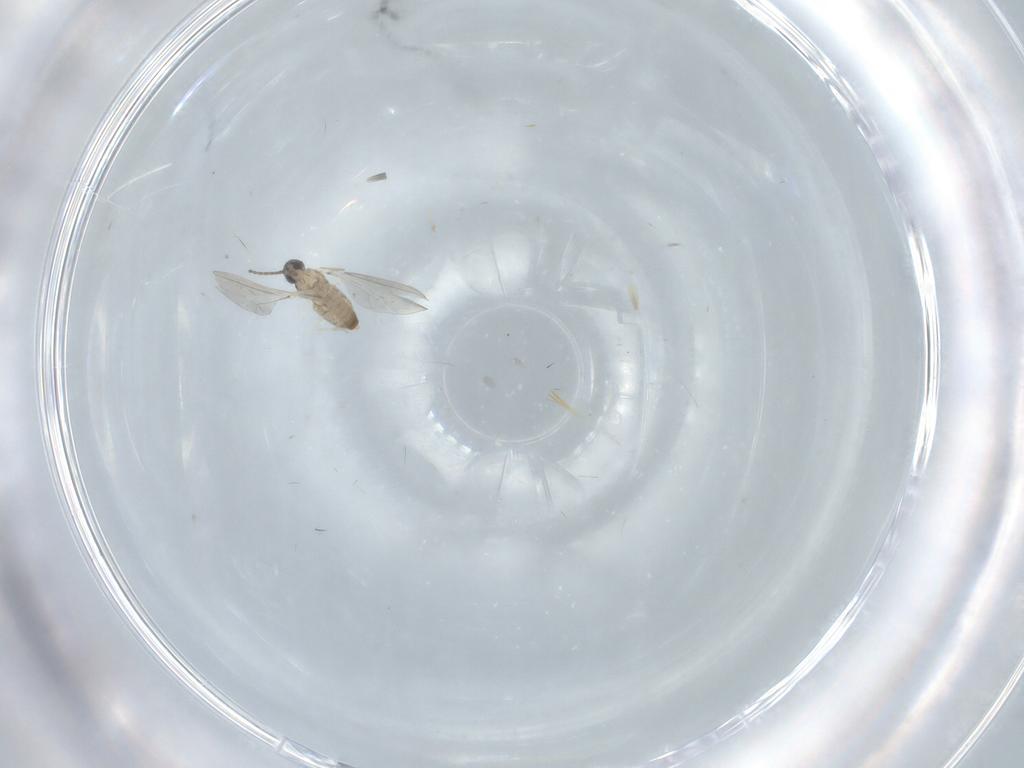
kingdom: Animalia
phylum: Arthropoda
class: Insecta
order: Diptera
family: Cecidomyiidae
